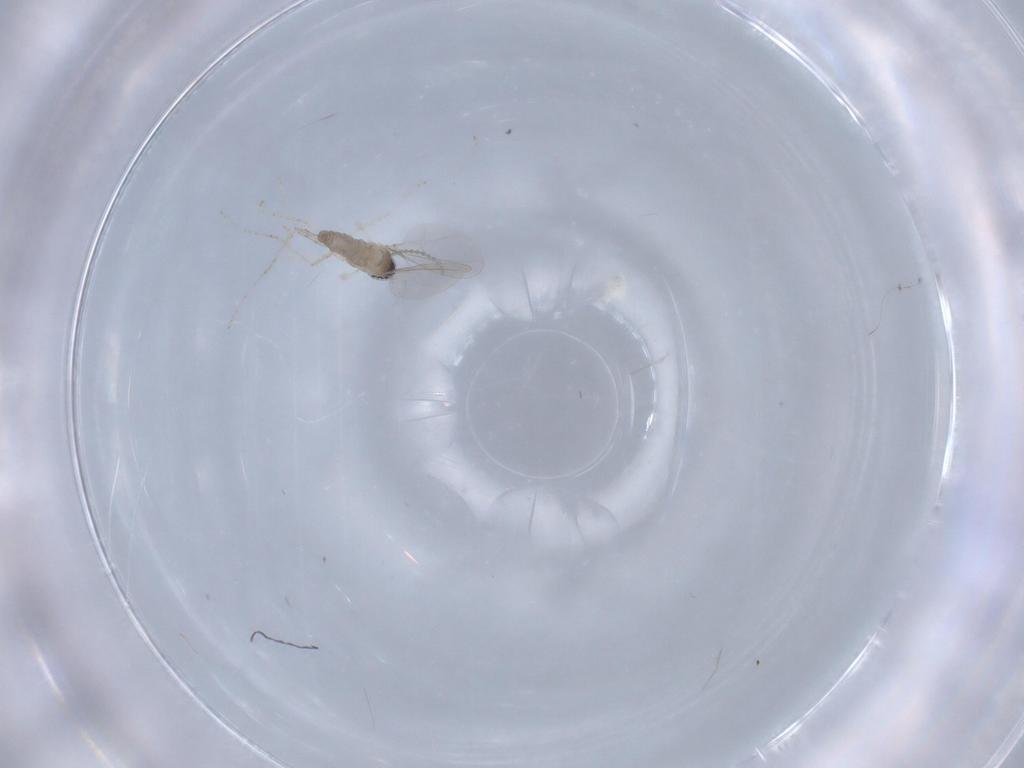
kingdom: Animalia
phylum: Arthropoda
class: Insecta
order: Diptera
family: Cecidomyiidae
